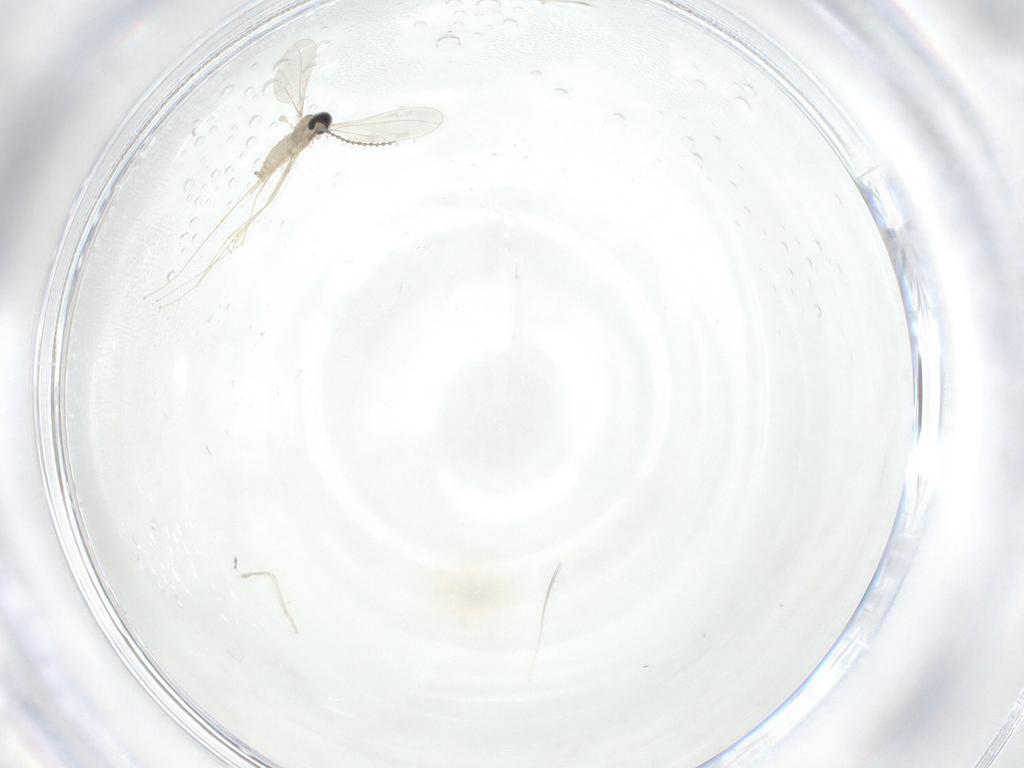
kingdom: Animalia
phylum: Arthropoda
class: Insecta
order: Diptera
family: Cecidomyiidae
